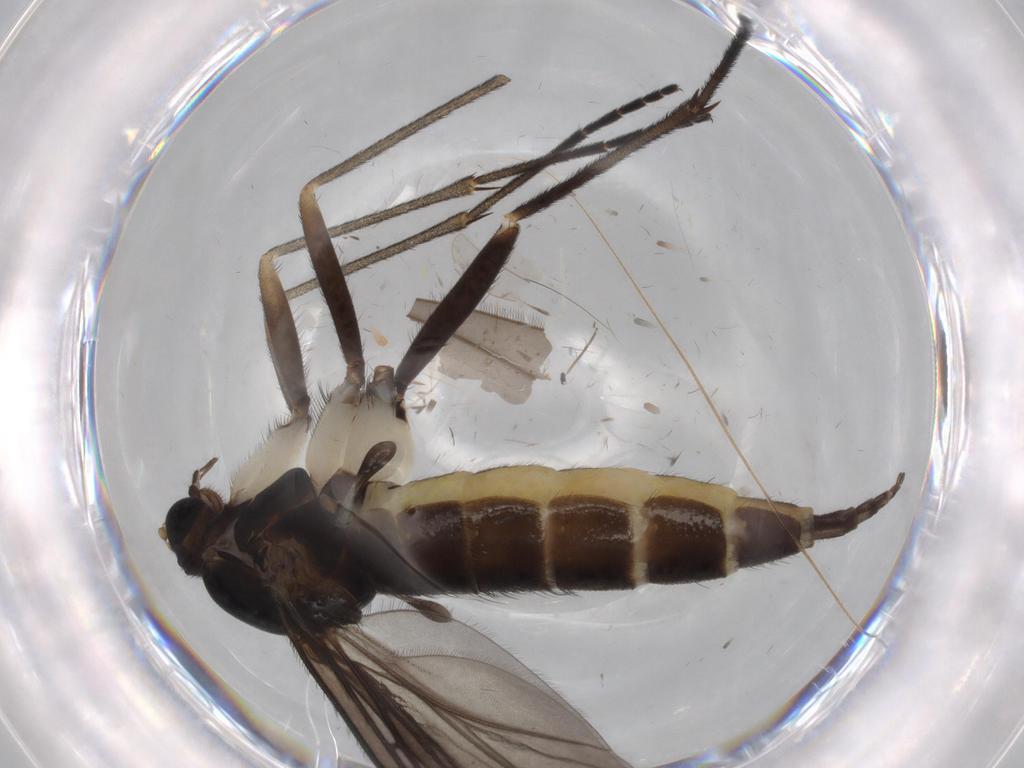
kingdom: Animalia
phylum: Arthropoda
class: Insecta
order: Diptera
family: Sciaridae
